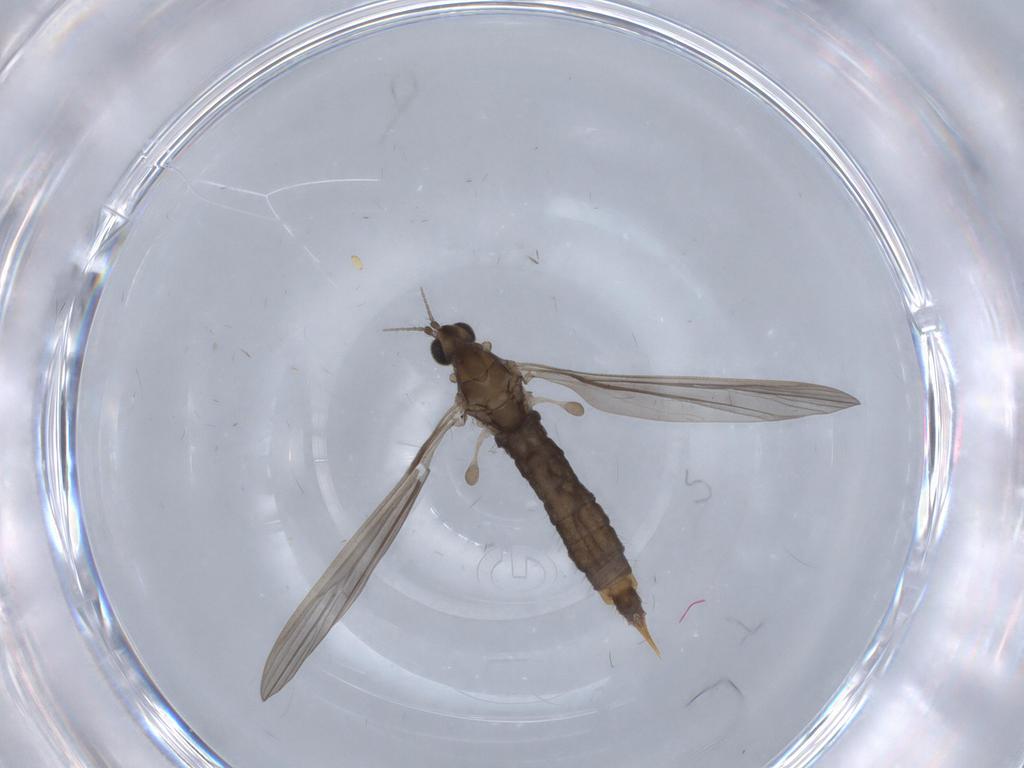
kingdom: Animalia
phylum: Arthropoda
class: Insecta
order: Diptera
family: Limoniidae
